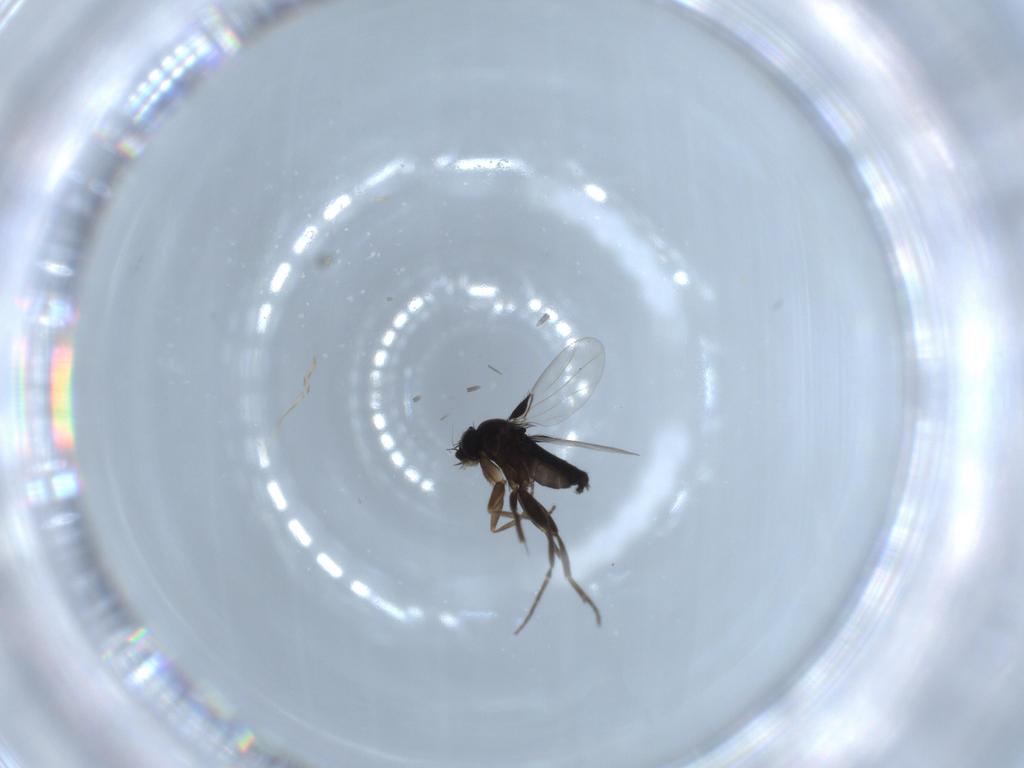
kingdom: Animalia
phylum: Arthropoda
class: Insecta
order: Diptera
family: Phoridae
